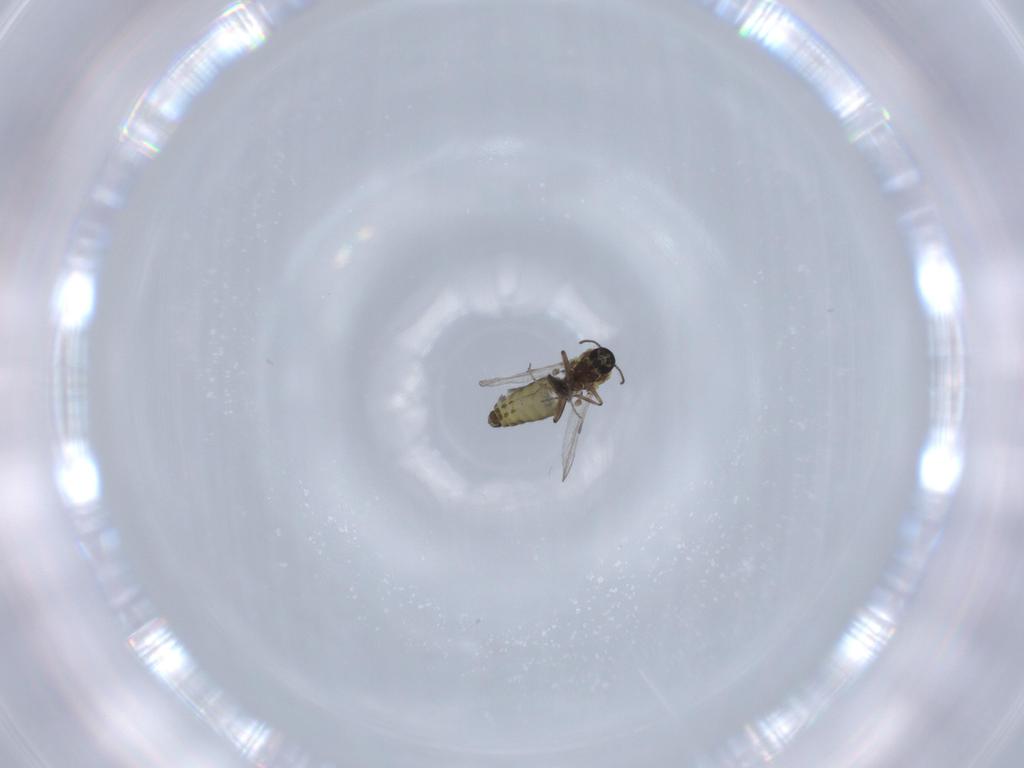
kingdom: Animalia
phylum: Arthropoda
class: Insecta
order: Diptera
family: Ceratopogonidae
